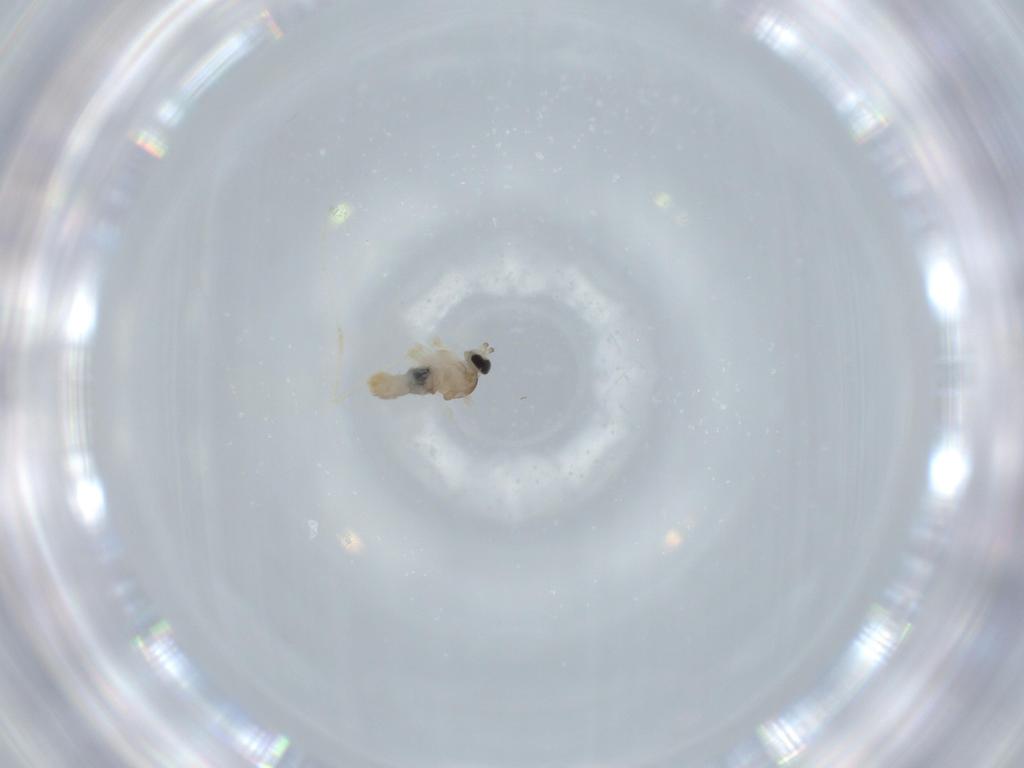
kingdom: Animalia
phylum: Arthropoda
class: Insecta
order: Diptera
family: Cecidomyiidae
